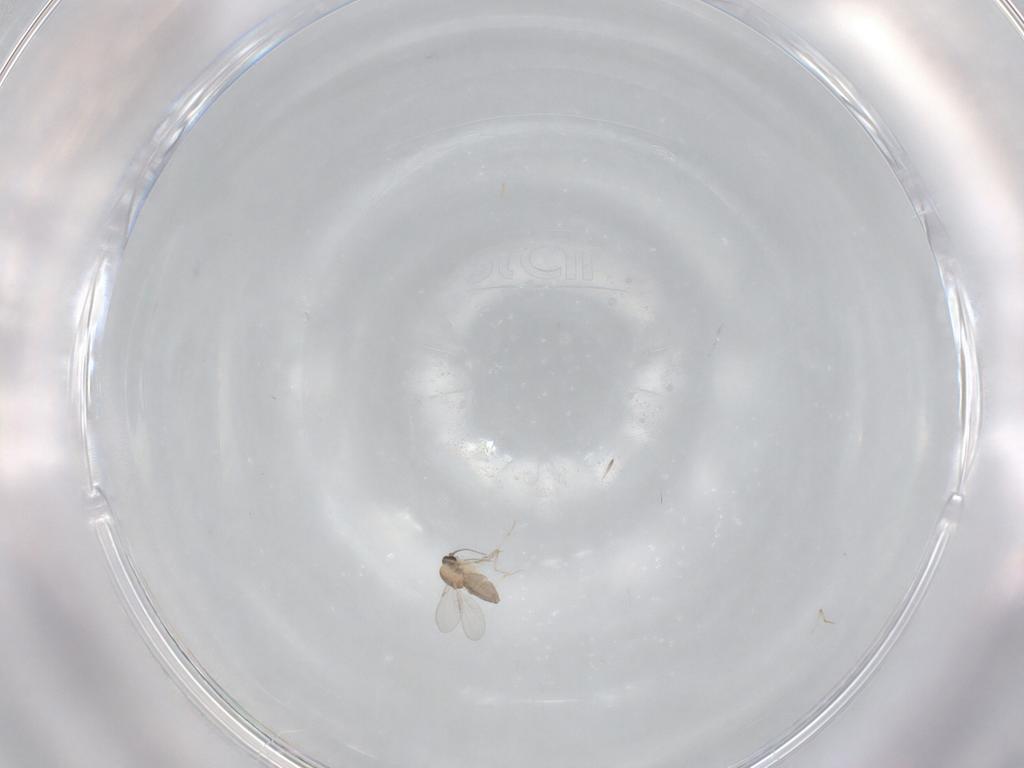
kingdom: Animalia
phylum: Arthropoda
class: Insecta
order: Diptera
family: Ceratopogonidae
